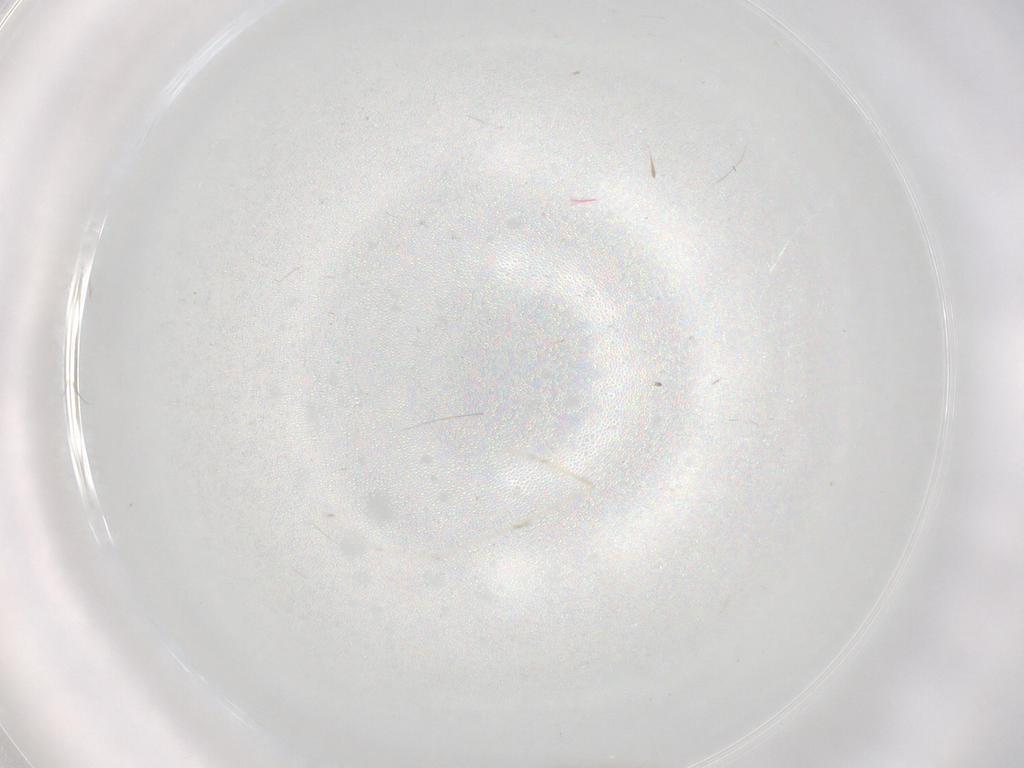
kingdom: Animalia
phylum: Arthropoda
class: Insecta
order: Diptera
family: Cecidomyiidae
